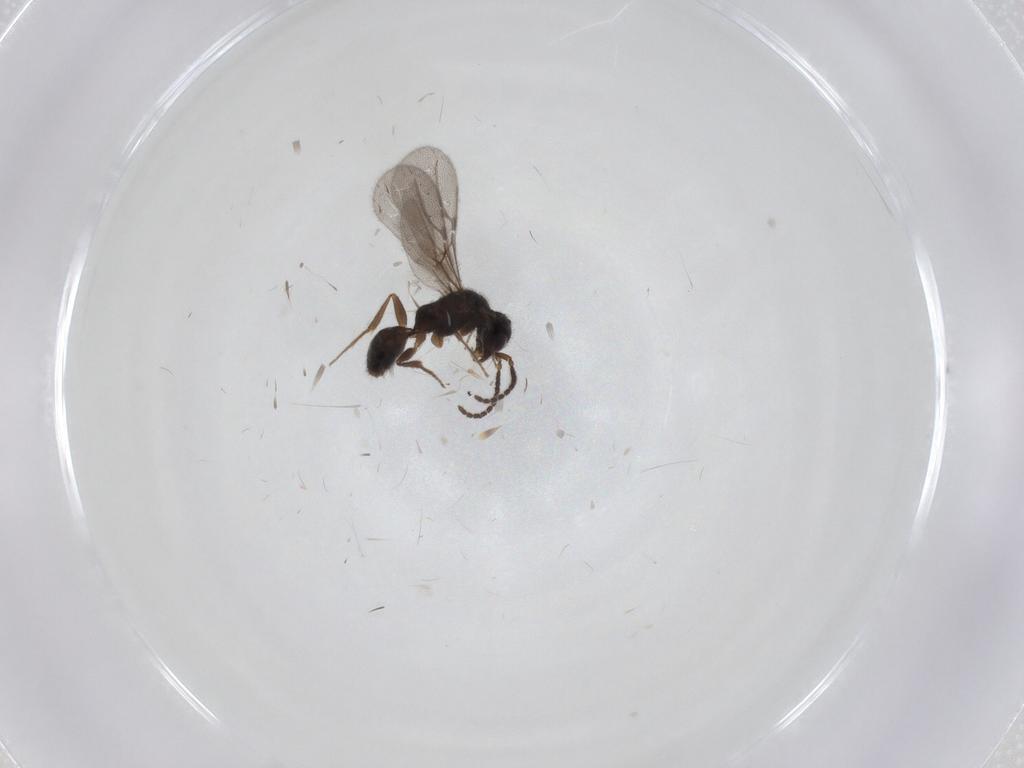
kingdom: Animalia
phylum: Arthropoda
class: Insecta
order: Hymenoptera
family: Bethylidae
